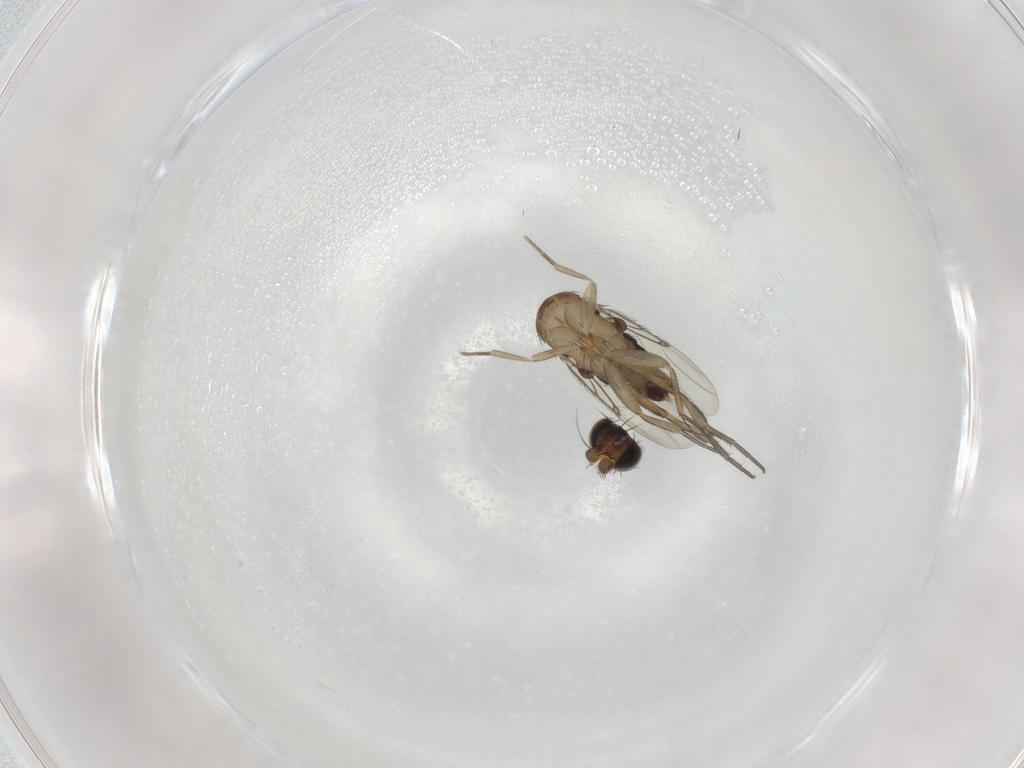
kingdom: Animalia
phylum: Arthropoda
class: Insecta
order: Diptera
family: Phoridae
